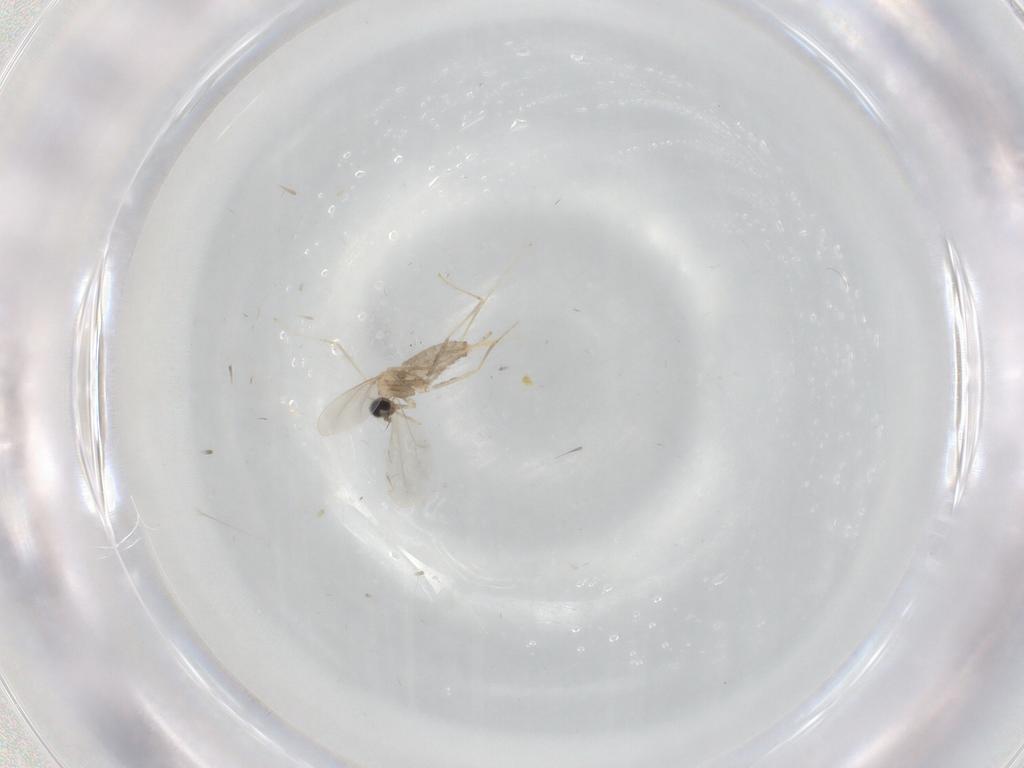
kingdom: Animalia
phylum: Arthropoda
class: Insecta
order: Diptera
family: Cecidomyiidae
